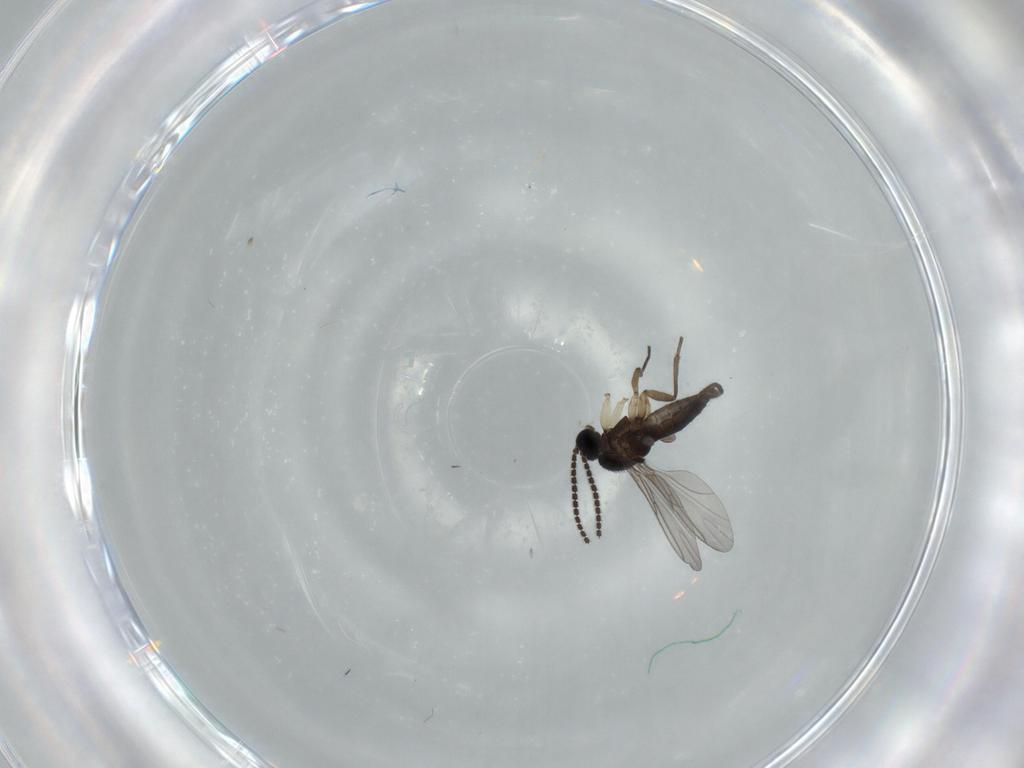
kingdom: Animalia
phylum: Arthropoda
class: Insecta
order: Diptera
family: Sciaridae
